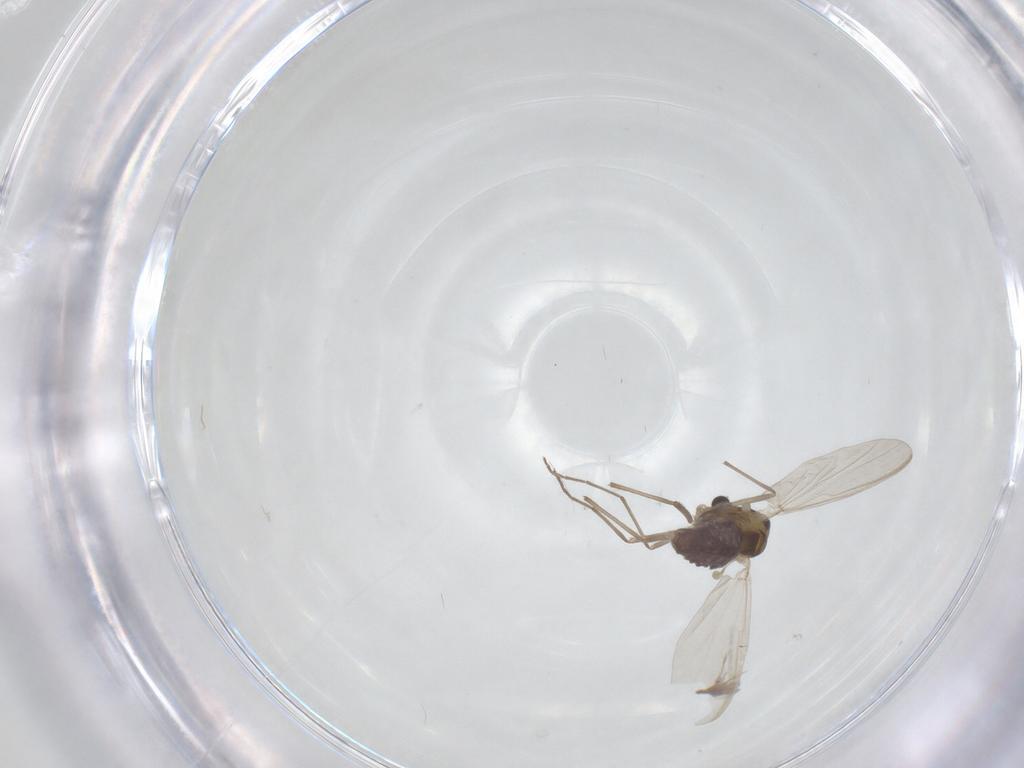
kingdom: Animalia
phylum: Arthropoda
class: Insecta
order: Diptera
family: Chironomidae
